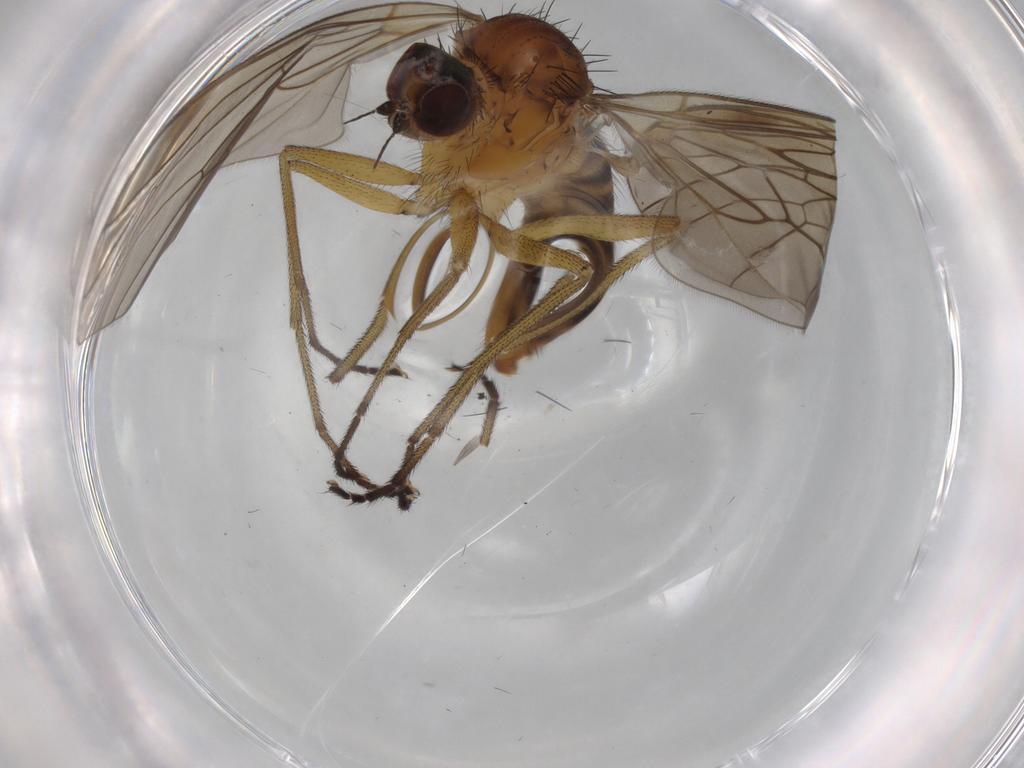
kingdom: Animalia
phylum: Arthropoda
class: Insecta
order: Diptera
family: Brachystomatidae
